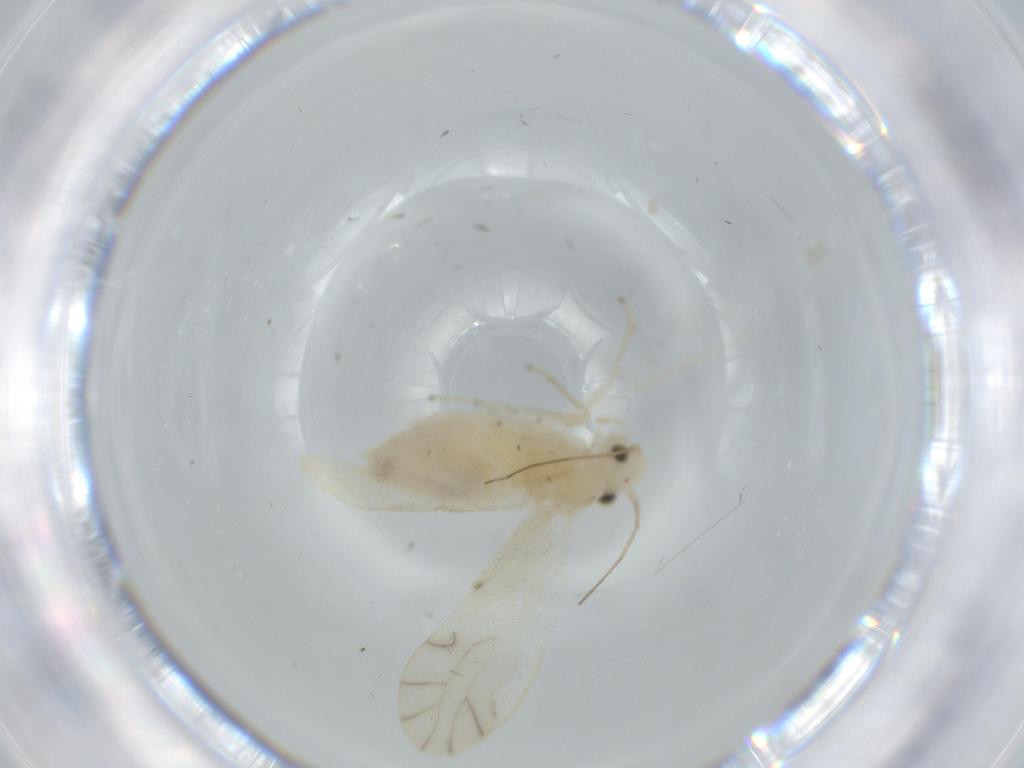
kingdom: Animalia
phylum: Arthropoda
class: Insecta
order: Psocodea
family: Caeciliusidae
